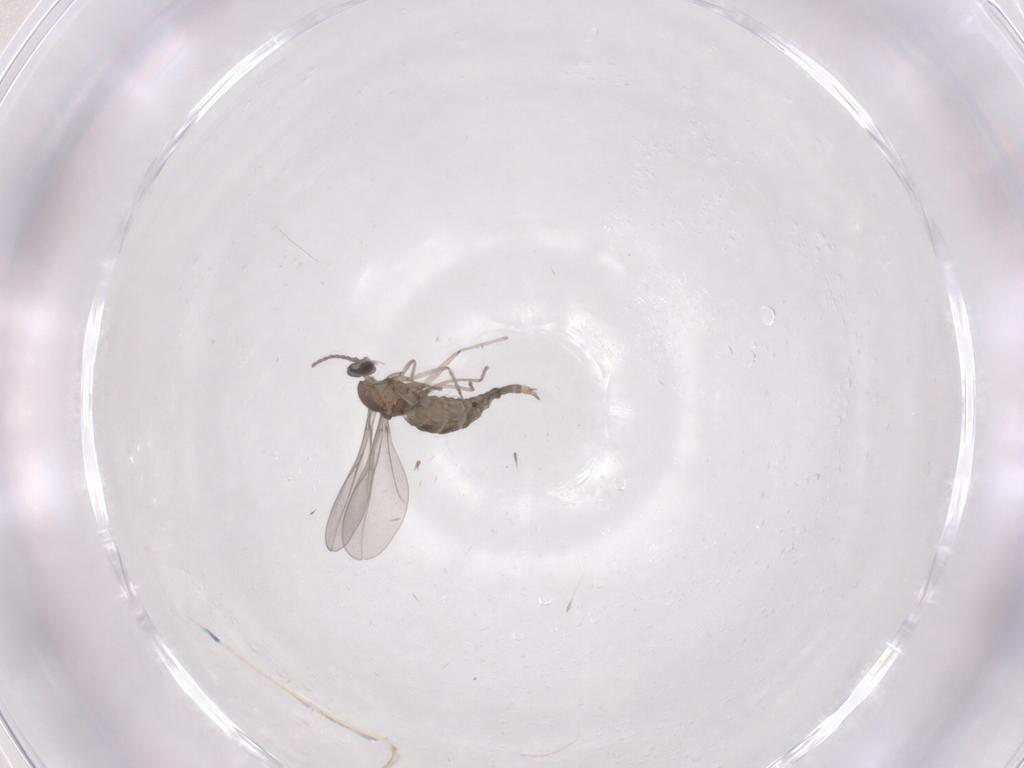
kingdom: Animalia
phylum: Arthropoda
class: Insecta
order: Diptera
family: Cecidomyiidae
